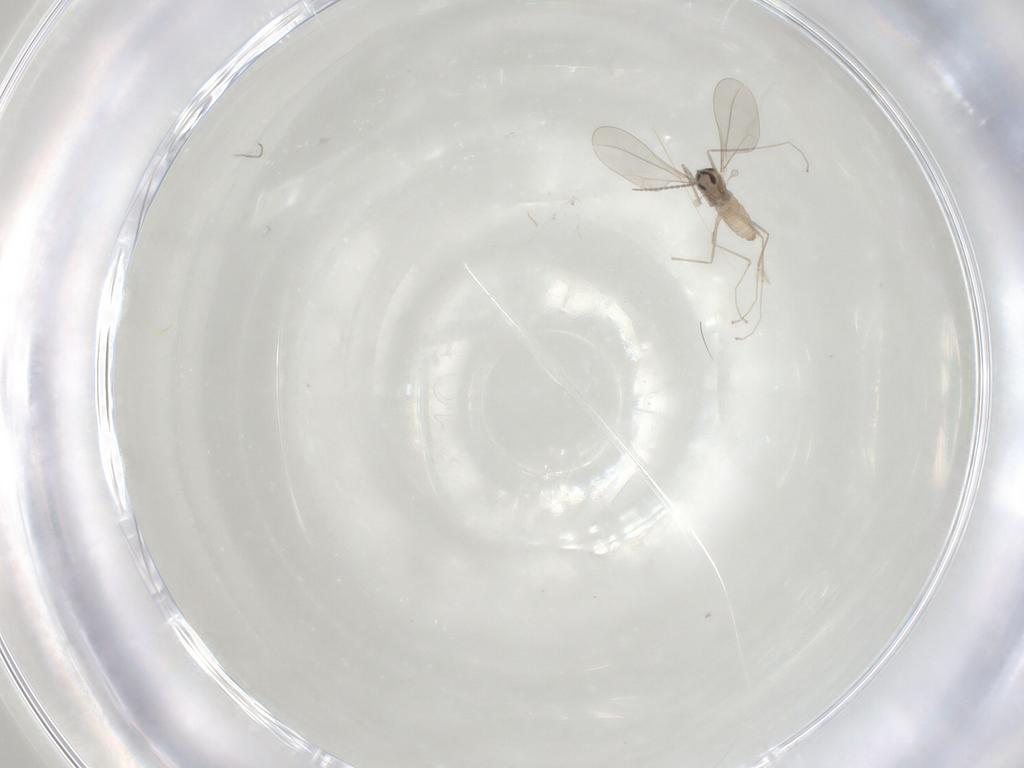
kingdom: Animalia
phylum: Arthropoda
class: Insecta
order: Diptera
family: Cecidomyiidae
